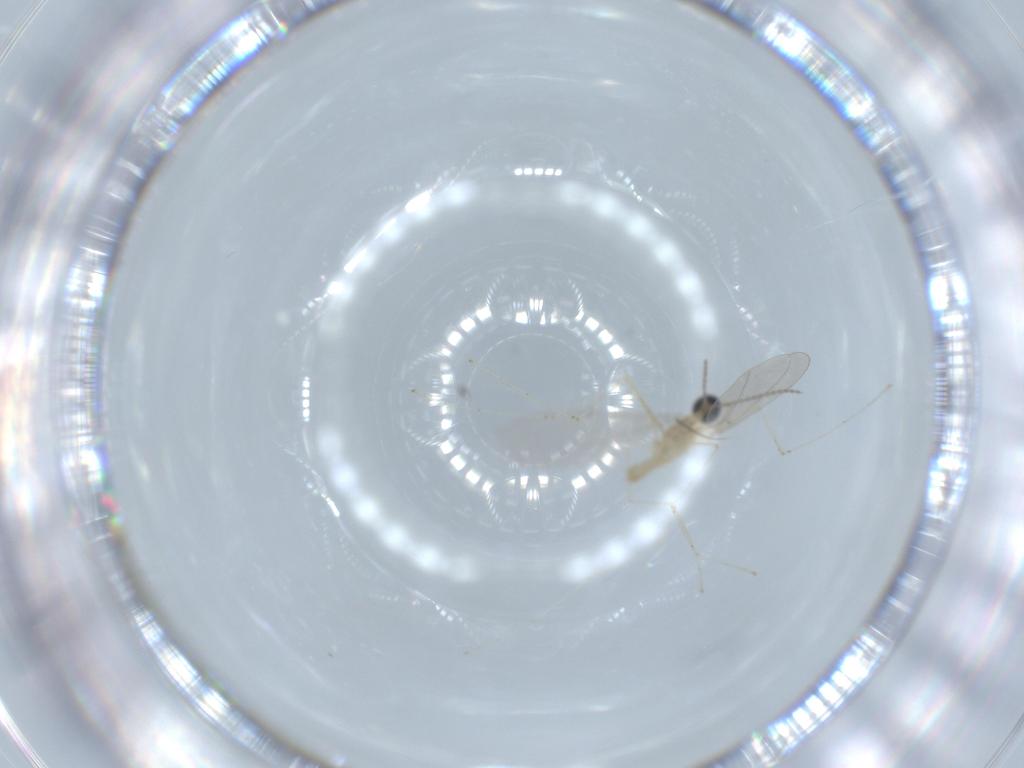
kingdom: Animalia
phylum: Arthropoda
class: Insecta
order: Diptera
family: Cecidomyiidae
